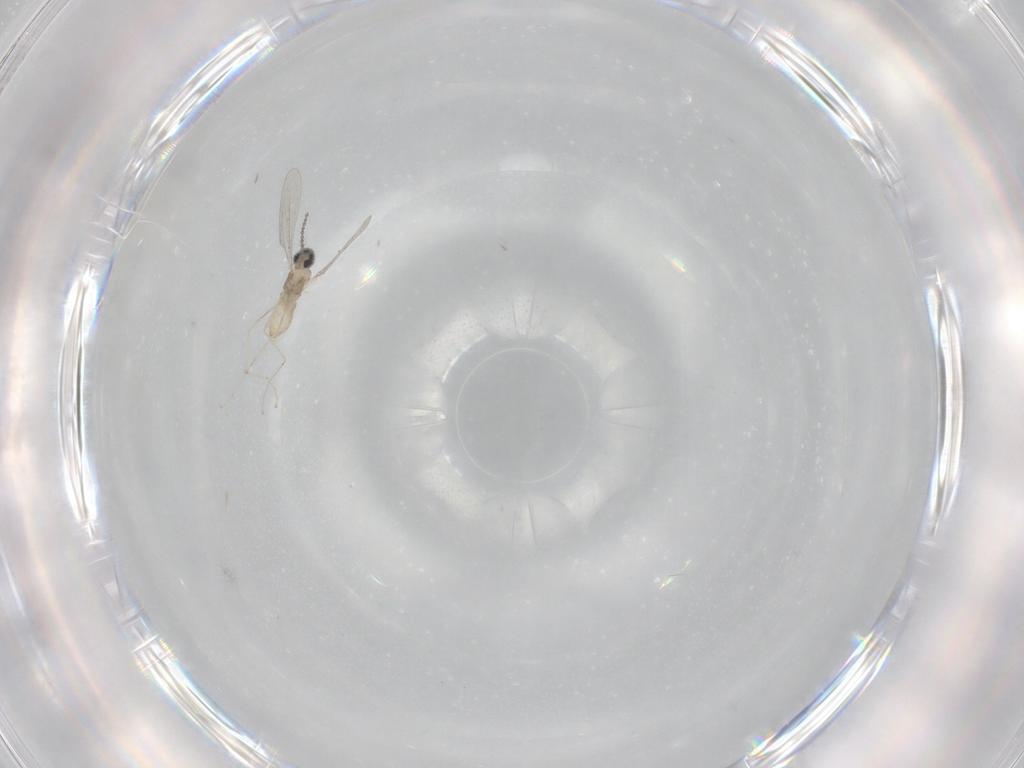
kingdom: Animalia
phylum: Arthropoda
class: Insecta
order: Diptera
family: Cecidomyiidae
